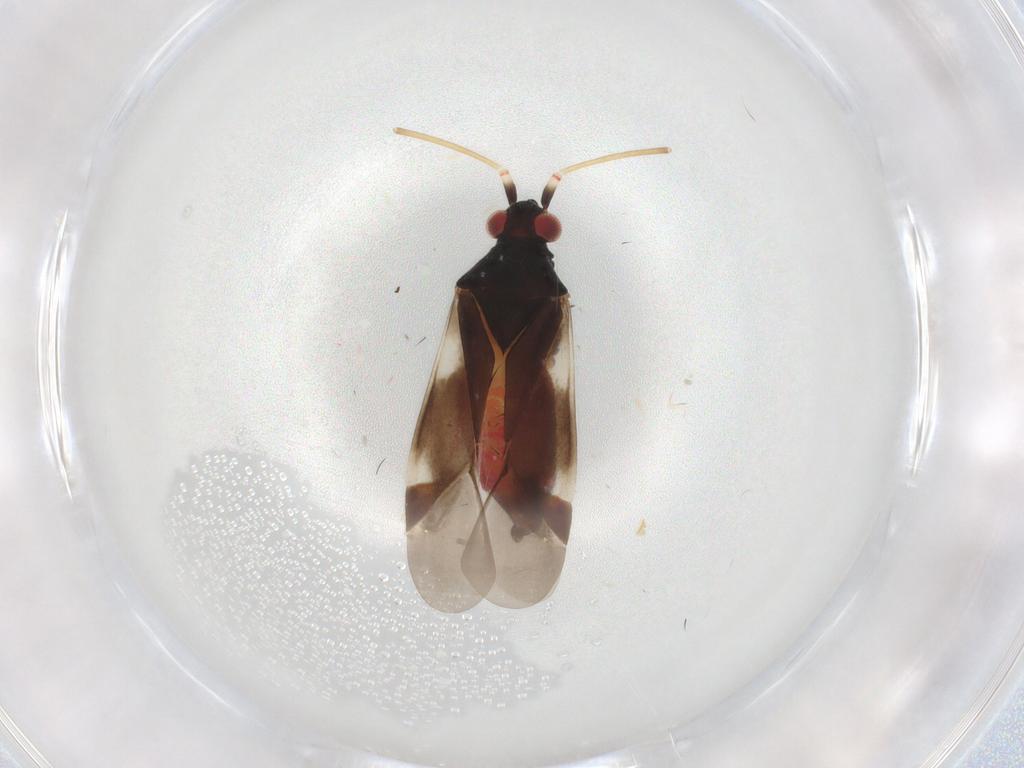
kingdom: Animalia
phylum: Arthropoda
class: Insecta
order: Hemiptera
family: Miridae
